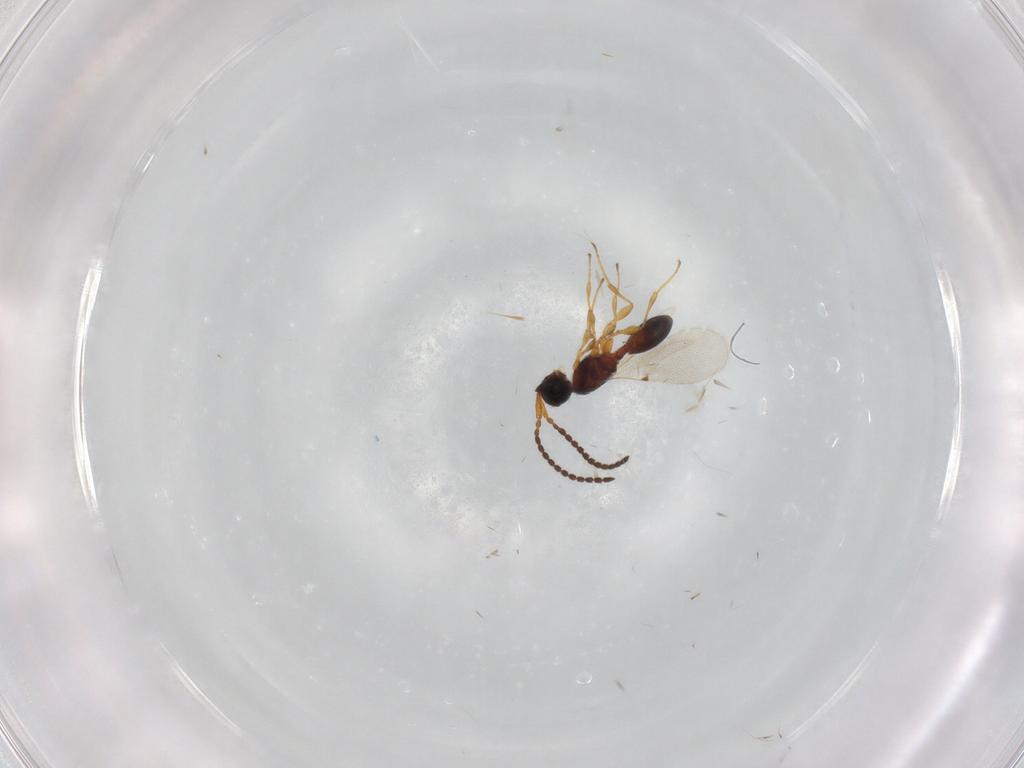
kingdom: Animalia
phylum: Arthropoda
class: Insecta
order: Hymenoptera
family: Diapriidae
